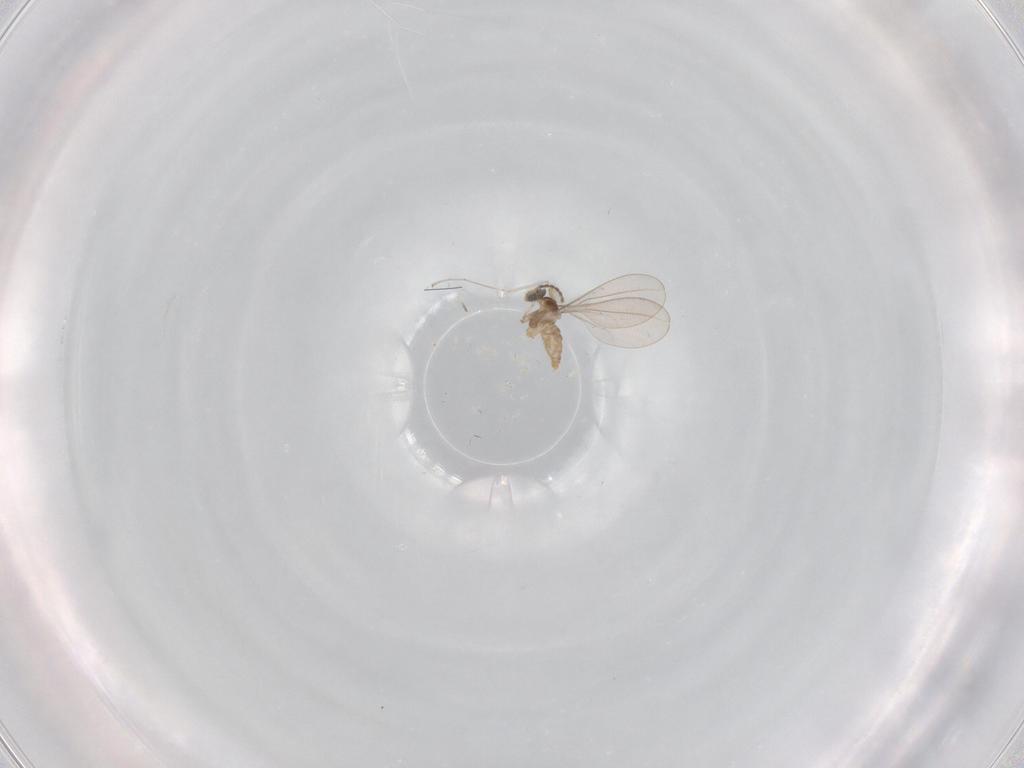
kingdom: Animalia
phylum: Arthropoda
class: Insecta
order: Diptera
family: Cecidomyiidae
